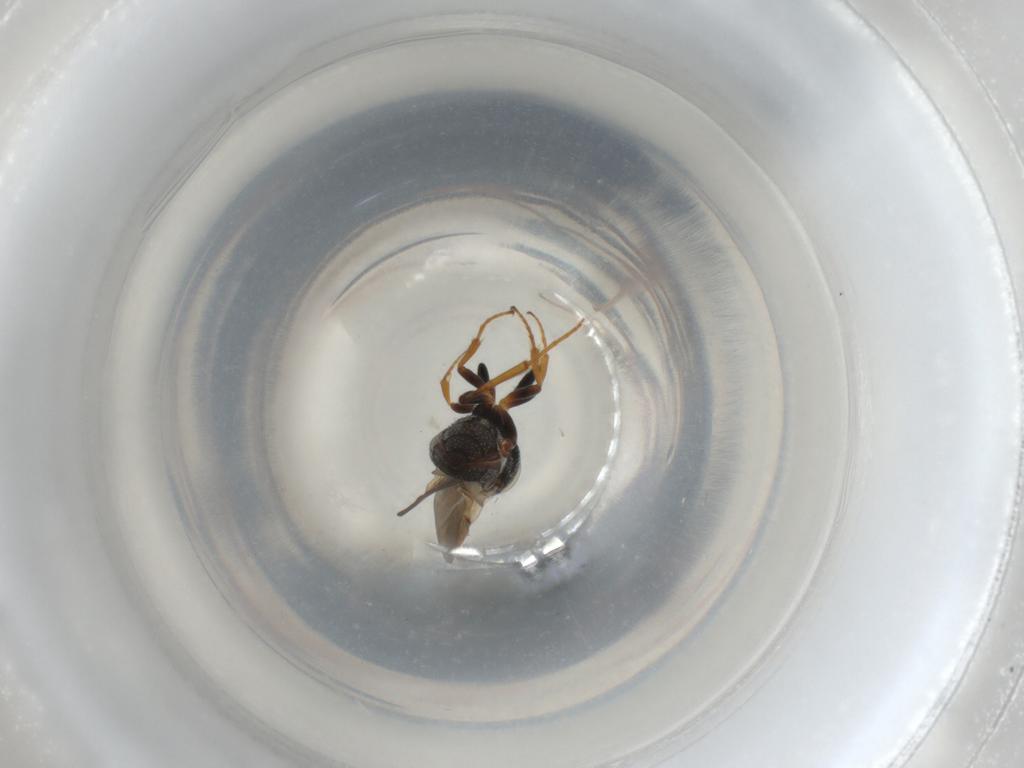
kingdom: Animalia
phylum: Arthropoda
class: Insecta
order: Hymenoptera
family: Scelionidae
